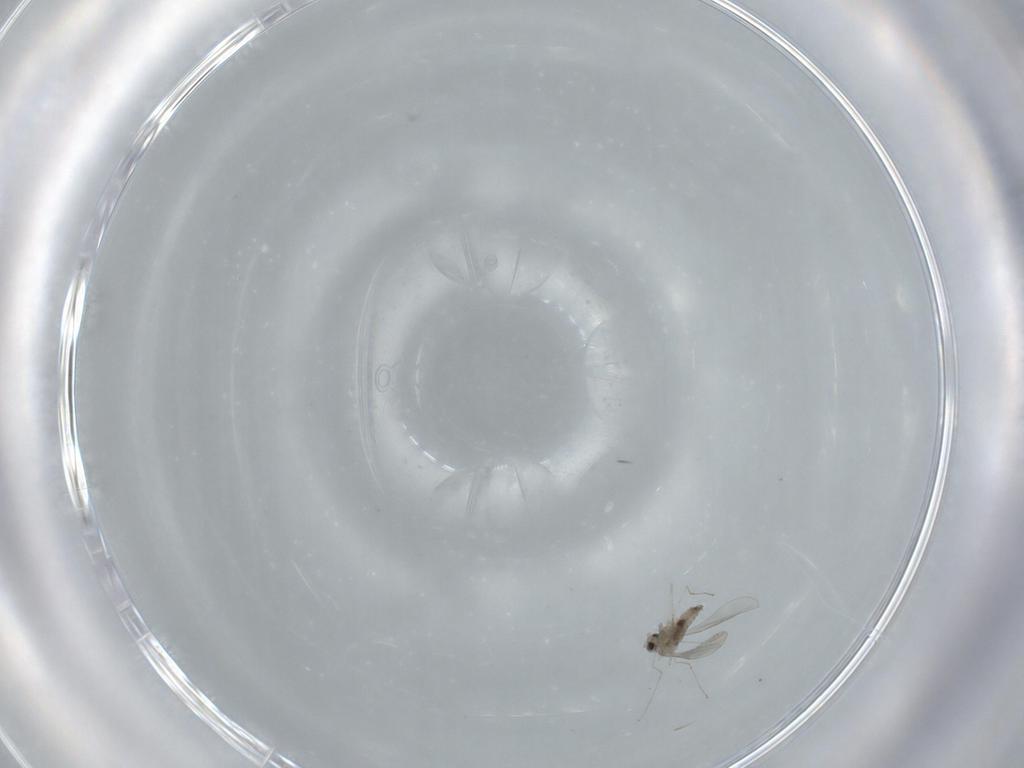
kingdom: Animalia
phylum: Arthropoda
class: Insecta
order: Diptera
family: Cecidomyiidae
